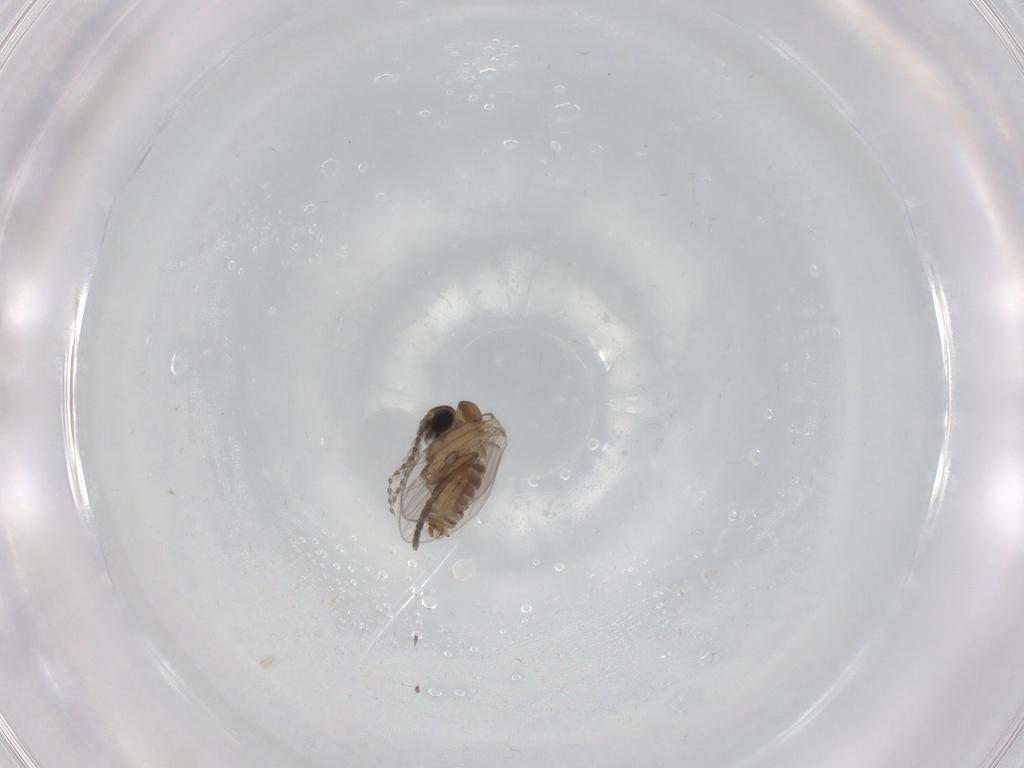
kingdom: Animalia
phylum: Arthropoda
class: Insecta
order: Diptera
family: Psychodidae
